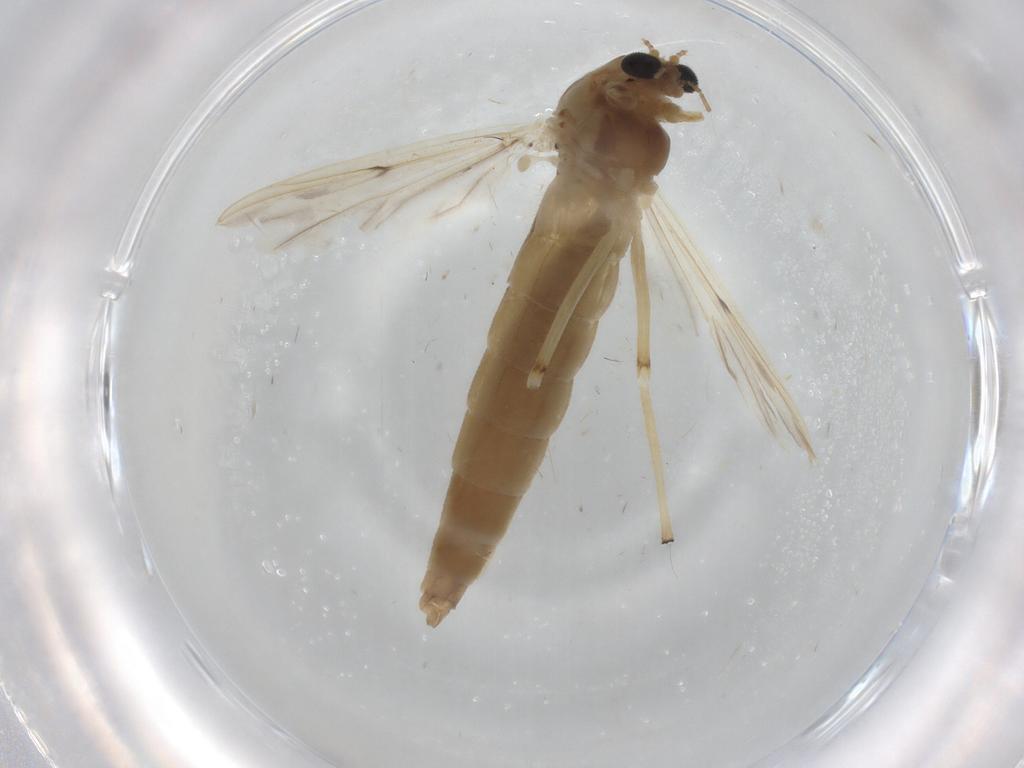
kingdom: Animalia
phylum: Arthropoda
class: Insecta
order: Diptera
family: Chironomidae
